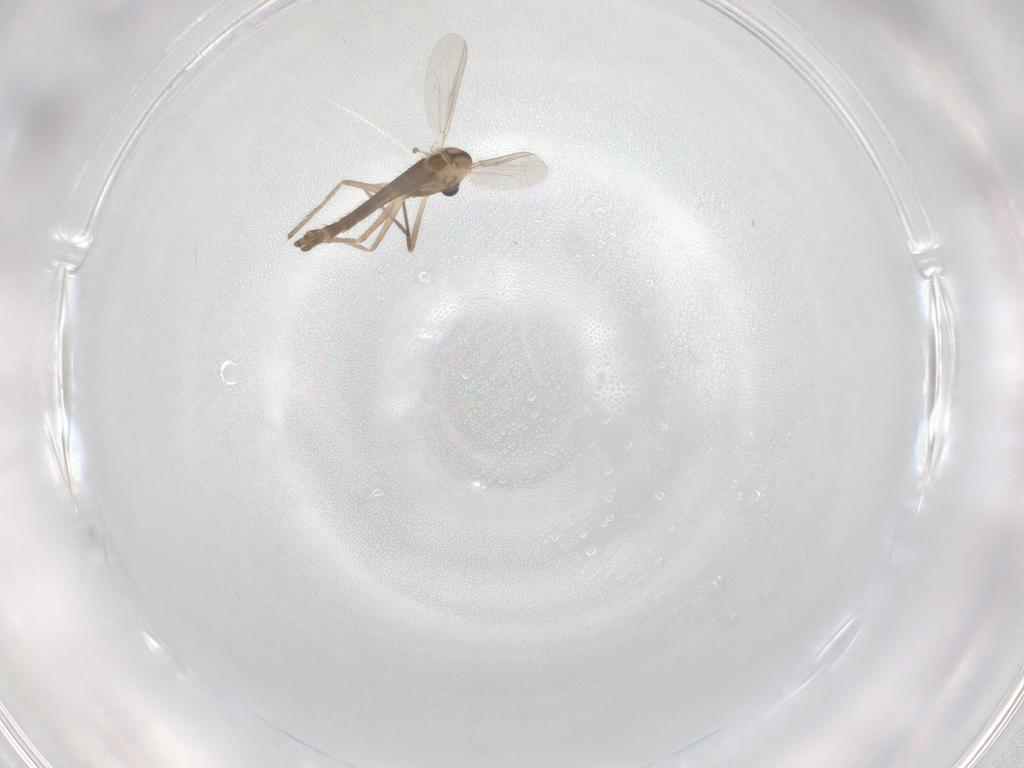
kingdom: Animalia
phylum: Arthropoda
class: Insecta
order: Diptera
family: Chironomidae
